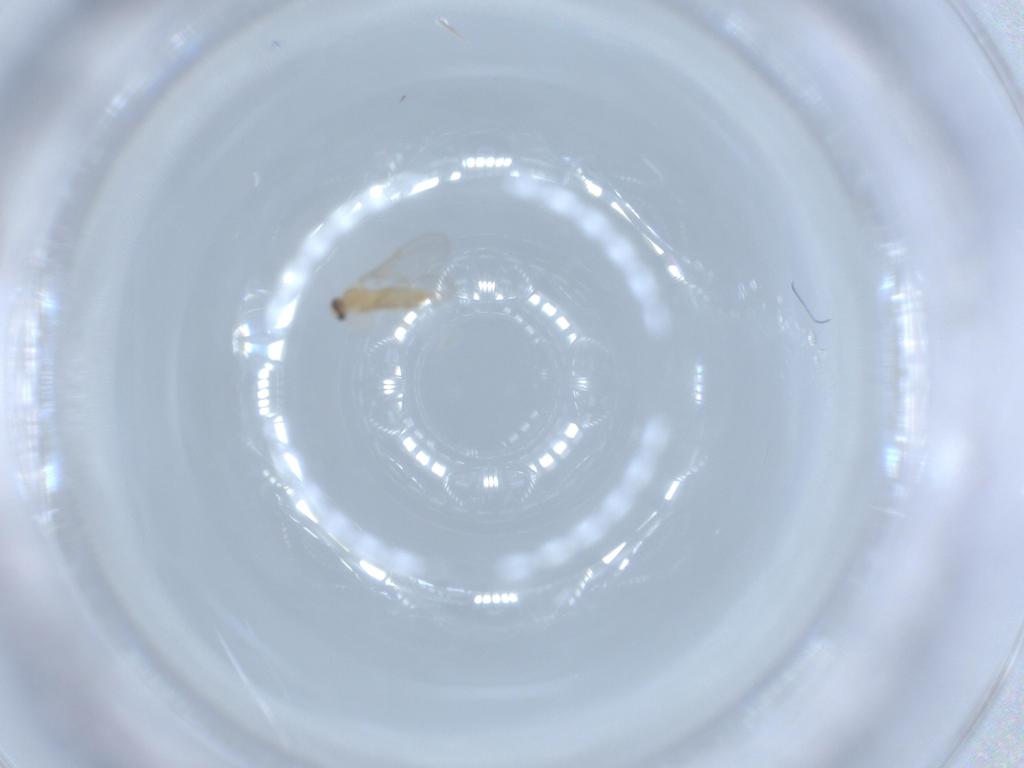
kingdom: Animalia
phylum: Arthropoda
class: Insecta
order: Diptera
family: Cecidomyiidae
